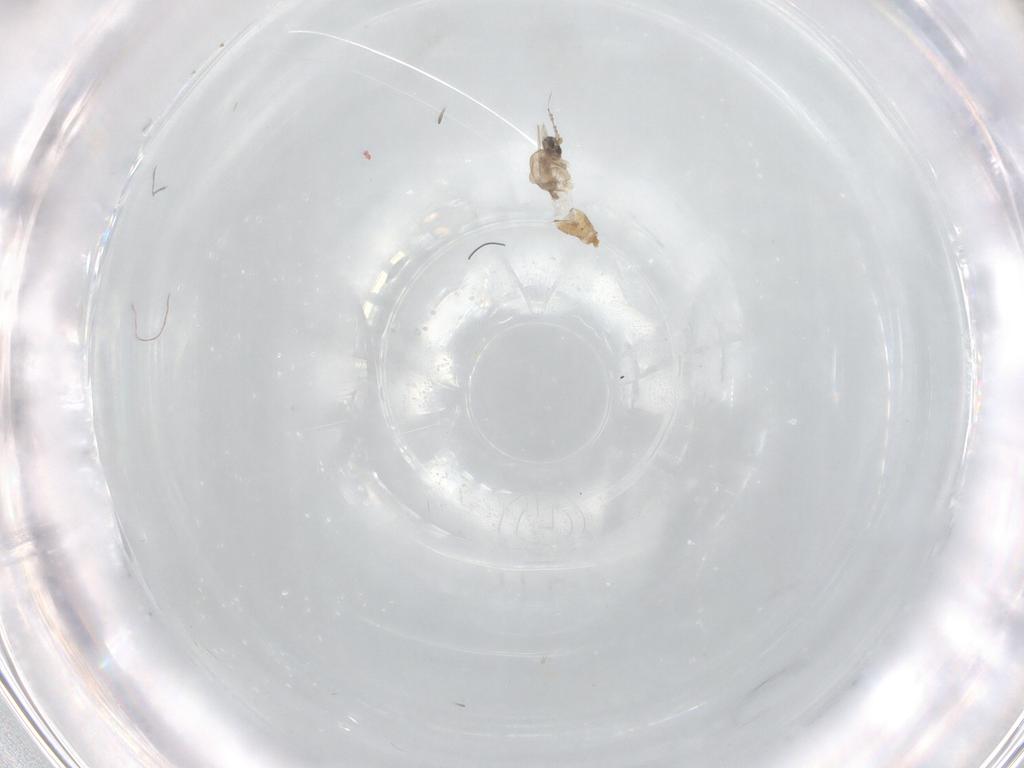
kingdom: Animalia
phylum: Arthropoda
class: Insecta
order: Diptera
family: Cecidomyiidae
